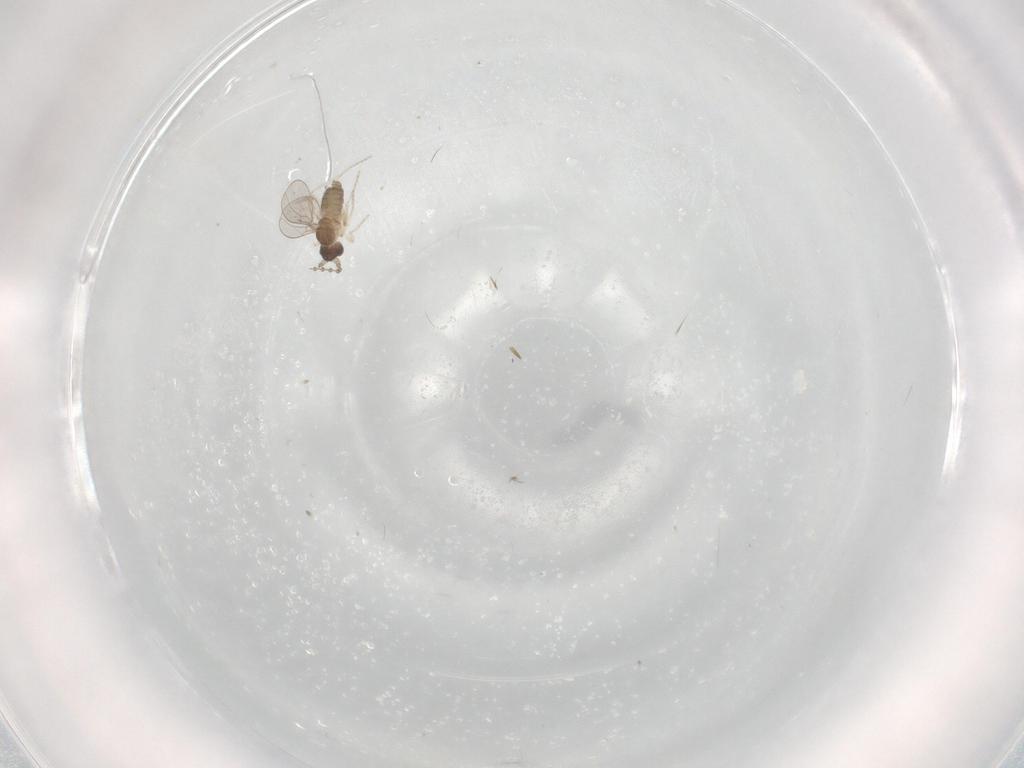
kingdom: Animalia
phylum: Arthropoda
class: Insecta
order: Diptera
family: Cecidomyiidae
